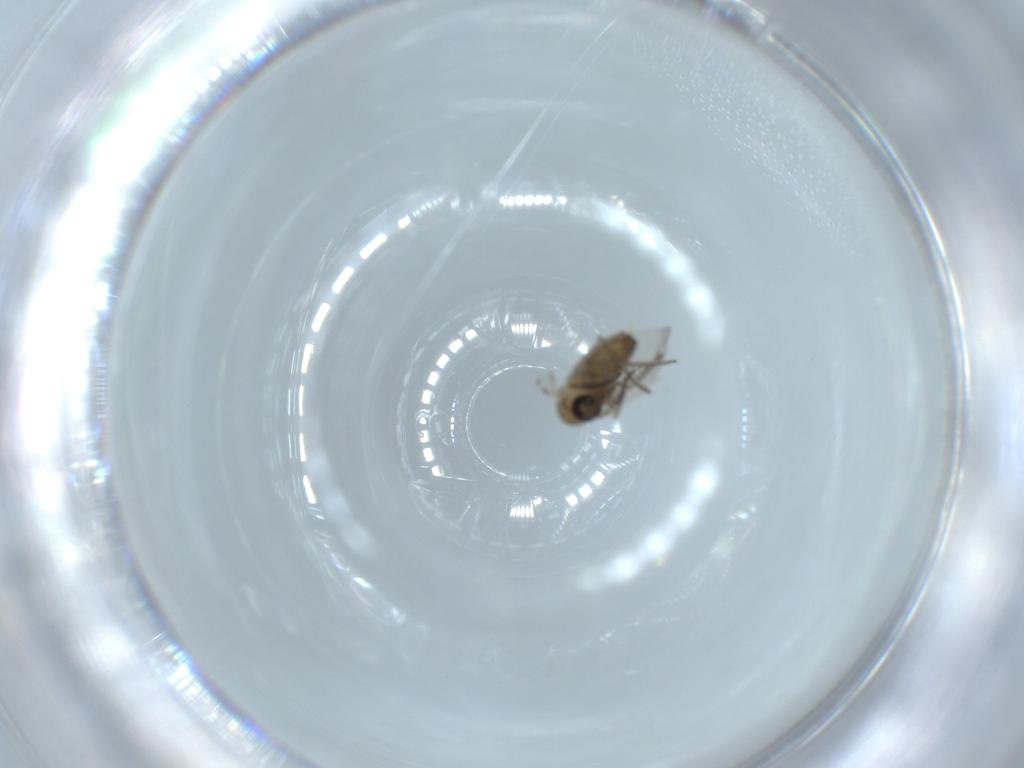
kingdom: Animalia
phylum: Arthropoda
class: Insecta
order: Diptera
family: Psychodidae
